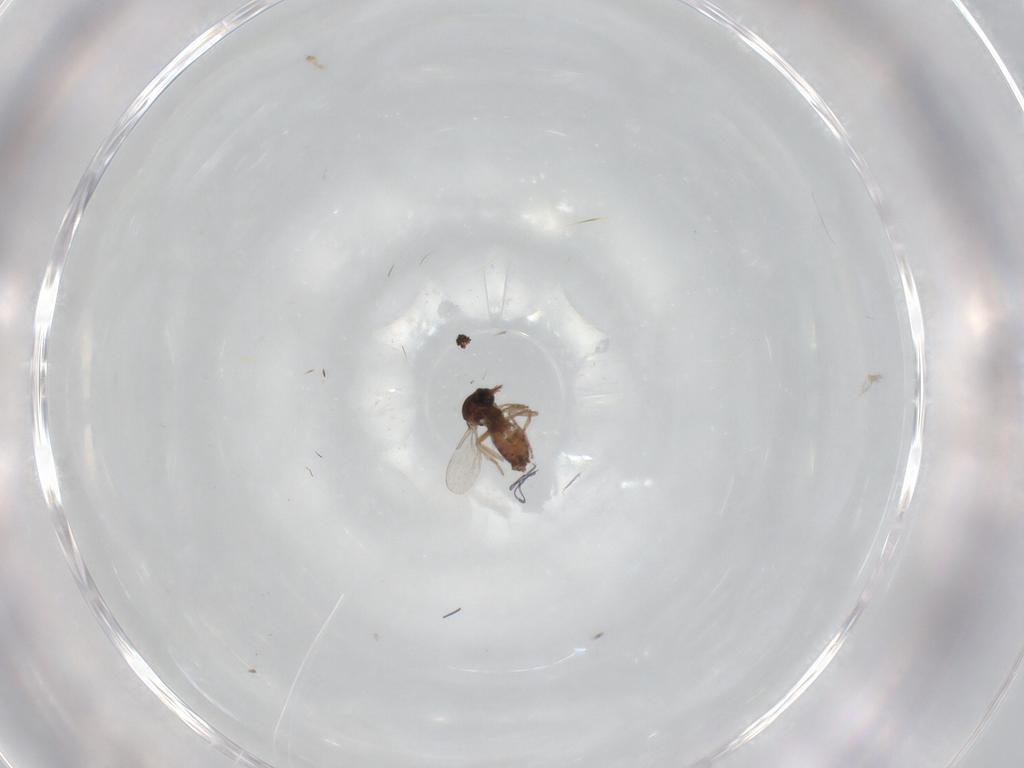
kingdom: Animalia
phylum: Arthropoda
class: Insecta
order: Diptera
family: Ceratopogonidae
